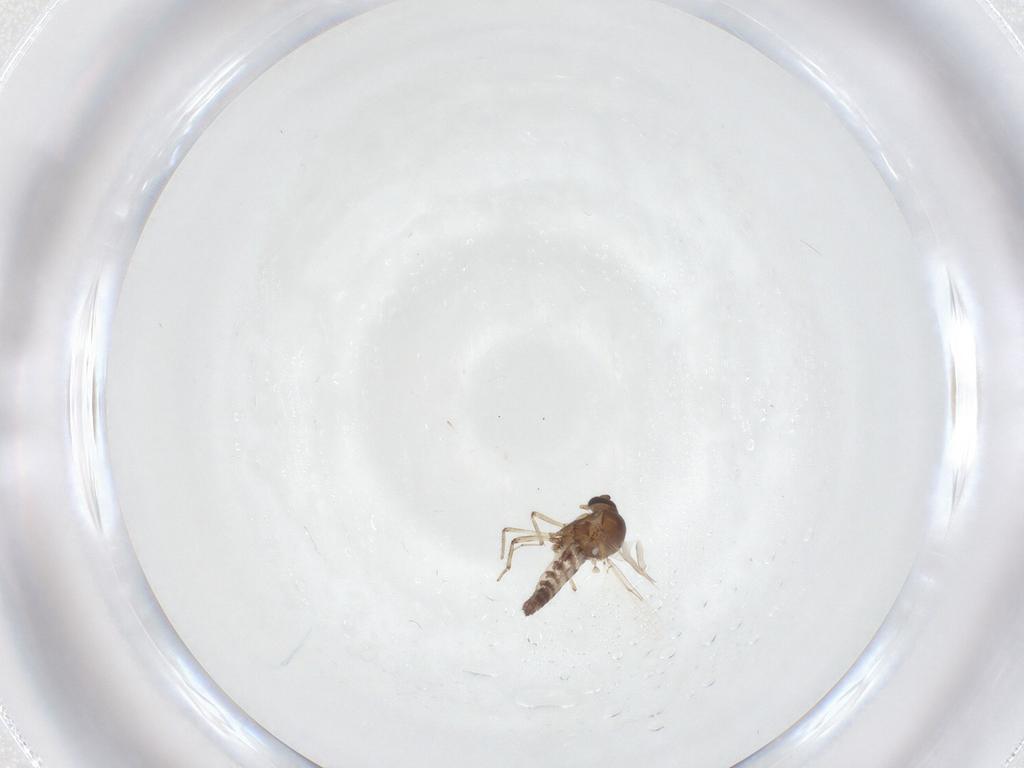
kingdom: Animalia
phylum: Arthropoda
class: Insecta
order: Diptera
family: Ceratopogonidae
